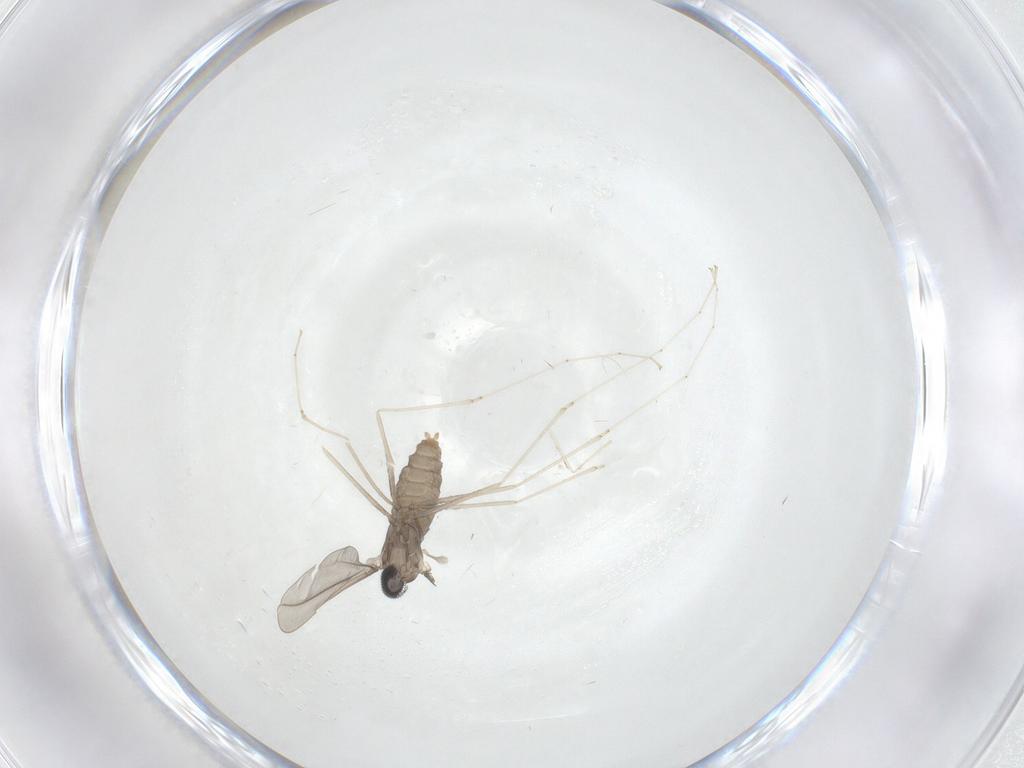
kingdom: Animalia
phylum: Arthropoda
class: Insecta
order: Diptera
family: Cecidomyiidae
